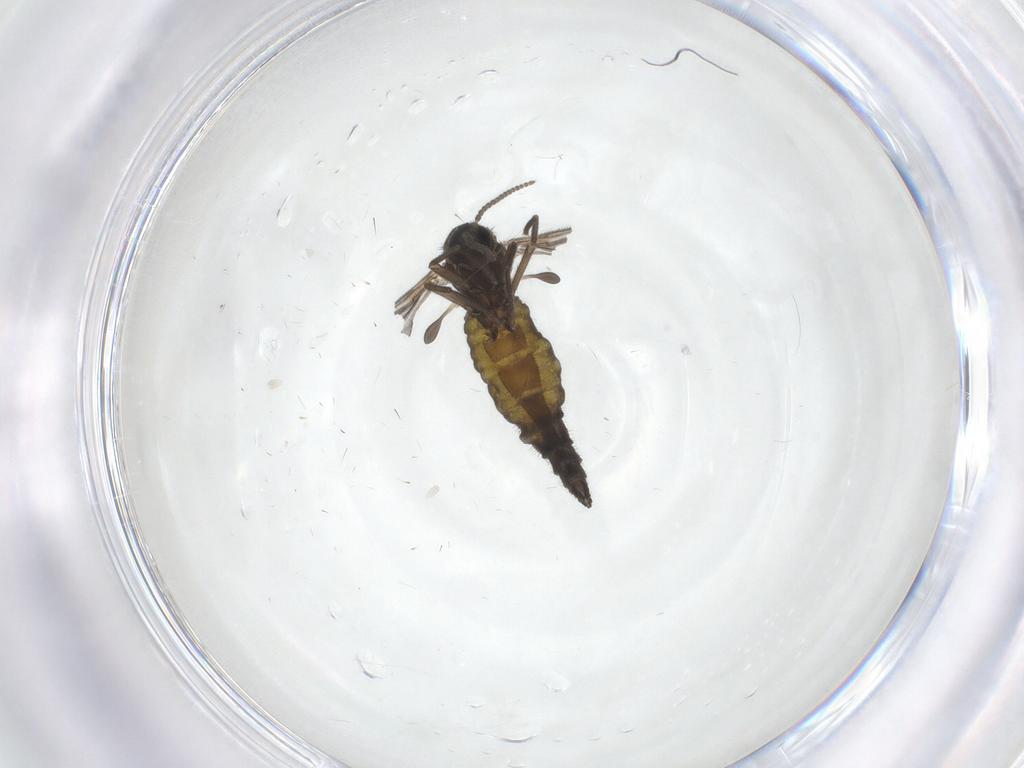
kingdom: Animalia
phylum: Arthropoda
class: Insecta
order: Diptera
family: Sciaridae
